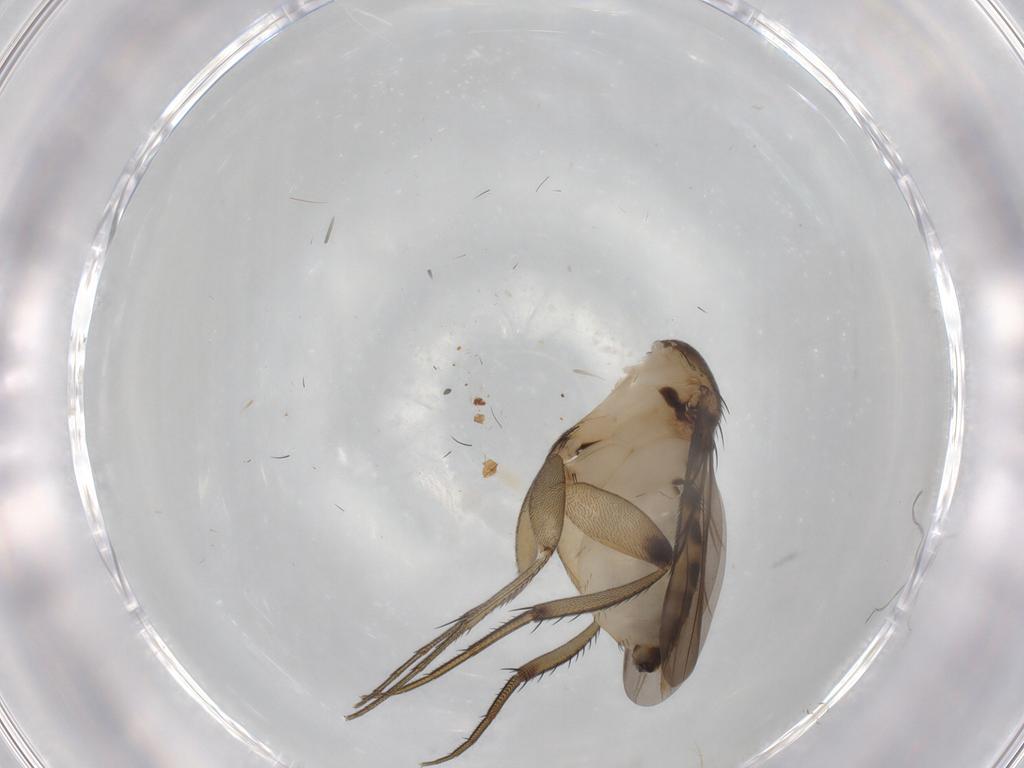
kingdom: Animalia
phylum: Arthropoda
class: Insecta
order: Diptera
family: Phoridae
